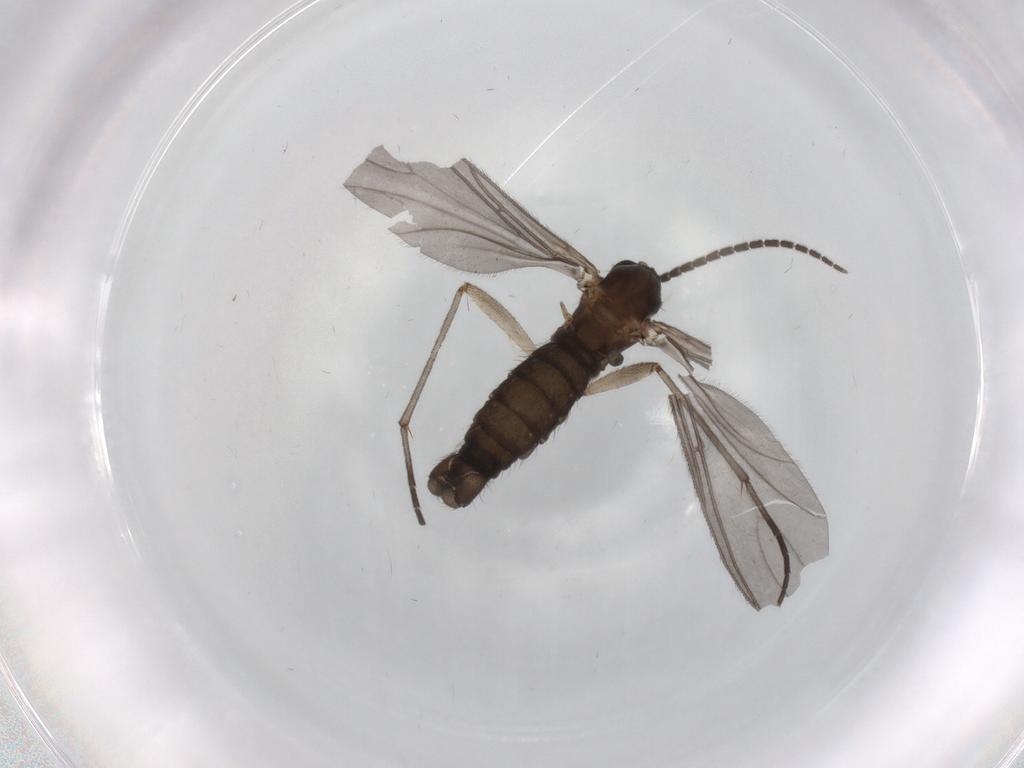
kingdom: Animalia
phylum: Arthropoda
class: Insecta
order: Diptera
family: Sciaridae
